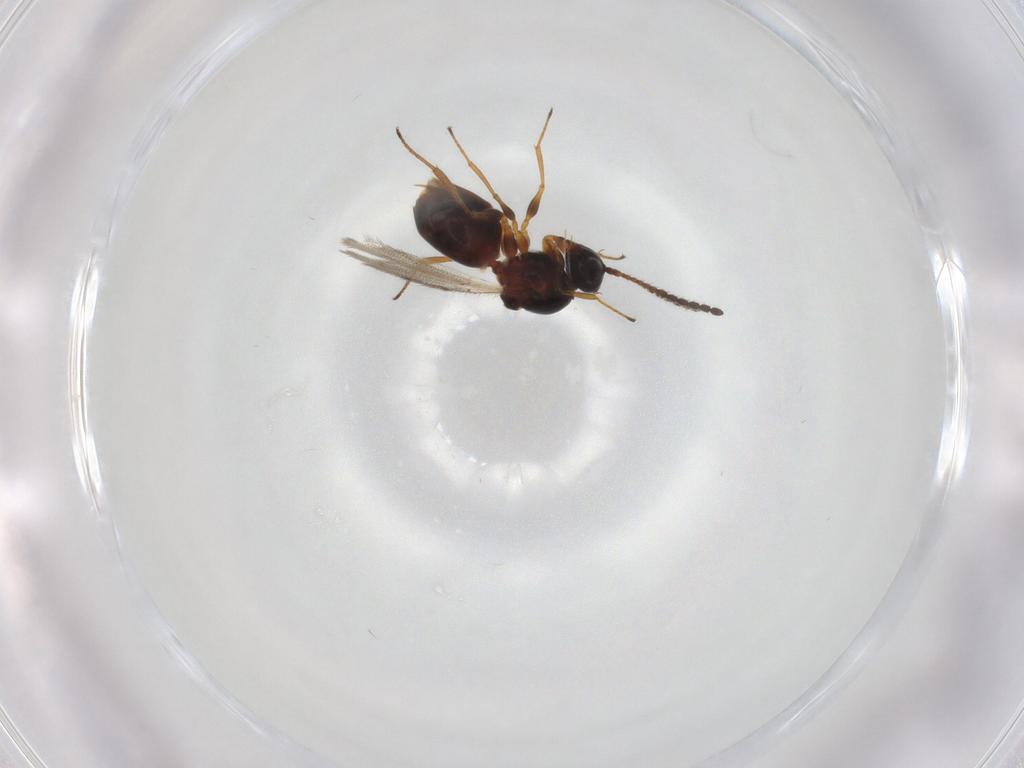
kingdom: Animalia
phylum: Arthropoda
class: Insecta
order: Hymenoptera
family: Figitidae
